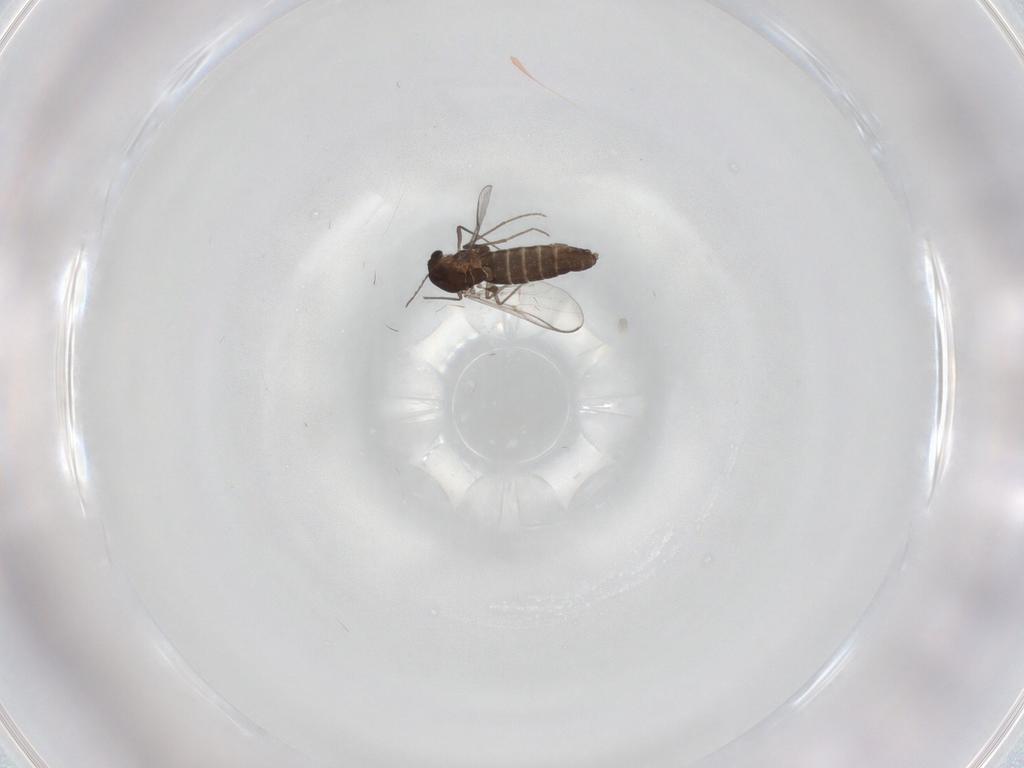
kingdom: Animalia
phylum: Arthropoda
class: Insecta
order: Diptera
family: Chironomidae
